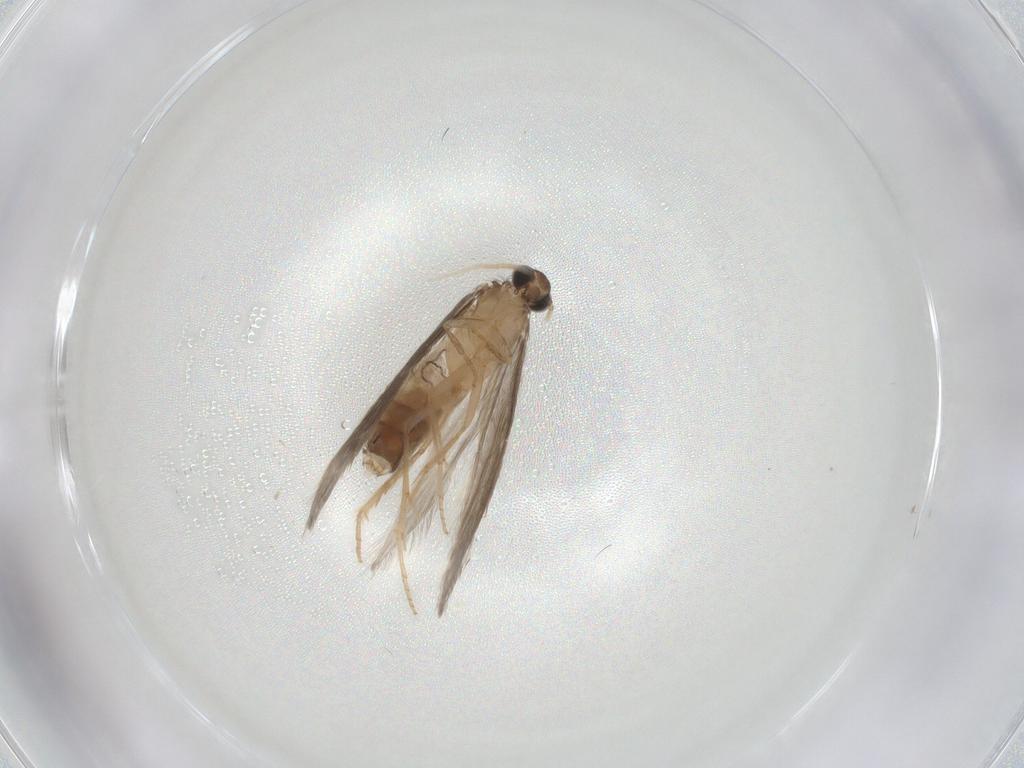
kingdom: Animalia
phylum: Arthropoda
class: Insecta
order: Trichoptera
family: Hydroptilidae
